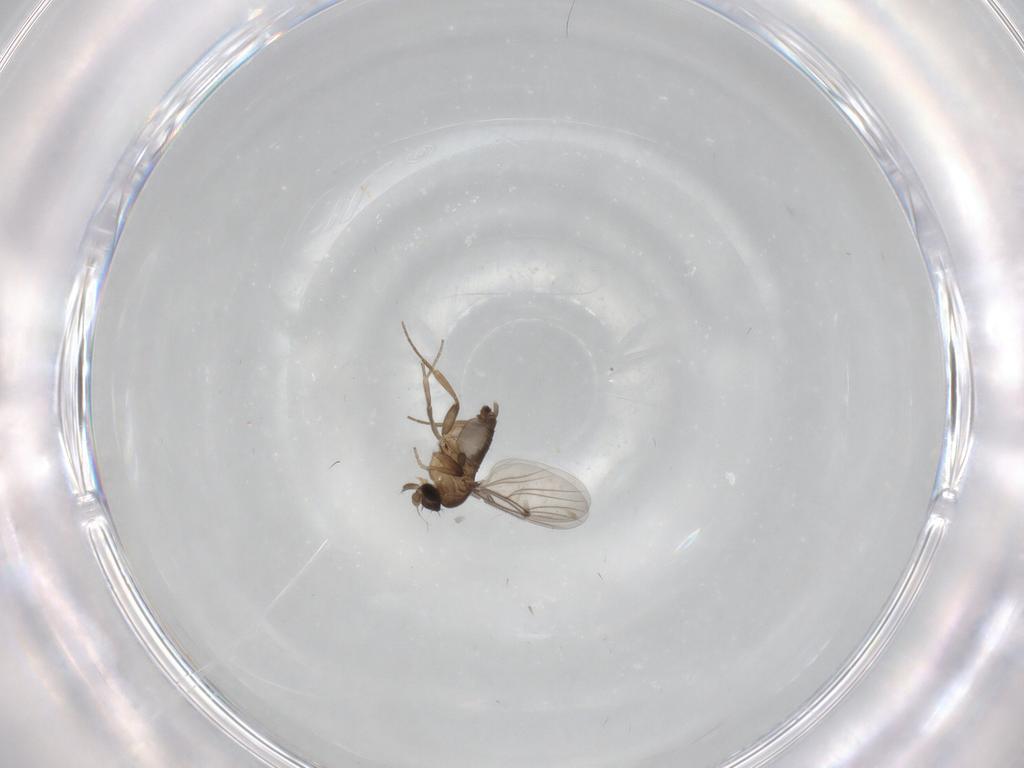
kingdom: Animalia
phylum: Arthropoda
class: Insecta
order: Diptera
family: Phoridae
